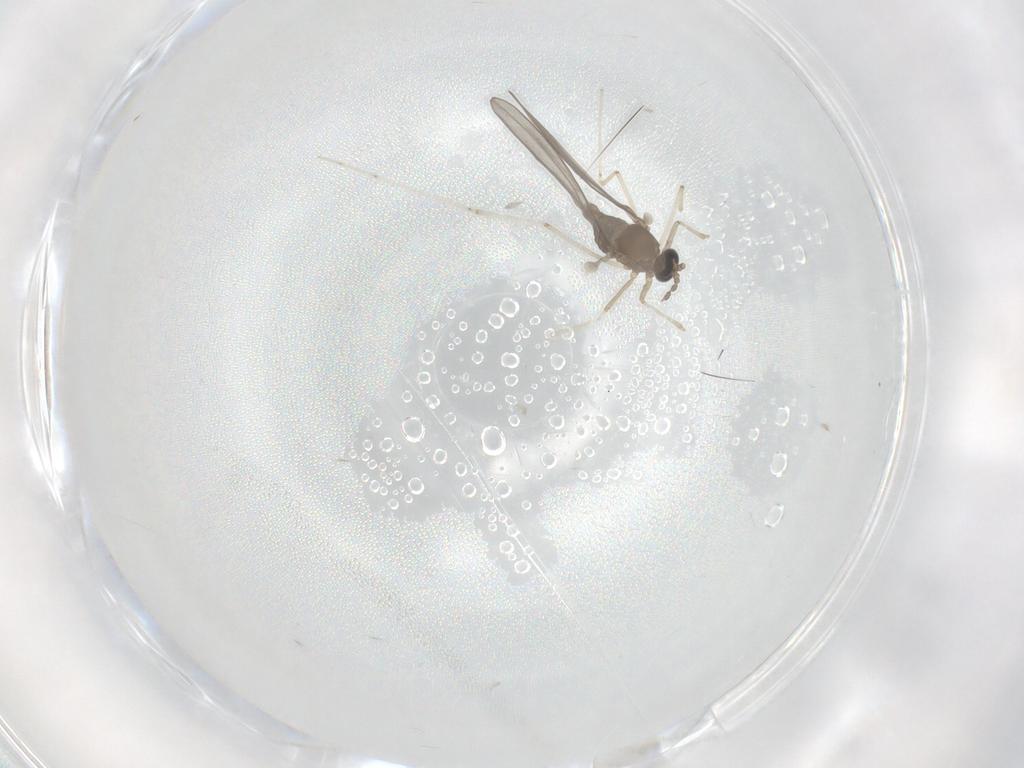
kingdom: Animalia
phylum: Arthropoda
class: Insecta
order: Diptera
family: Cecidomyiidae
